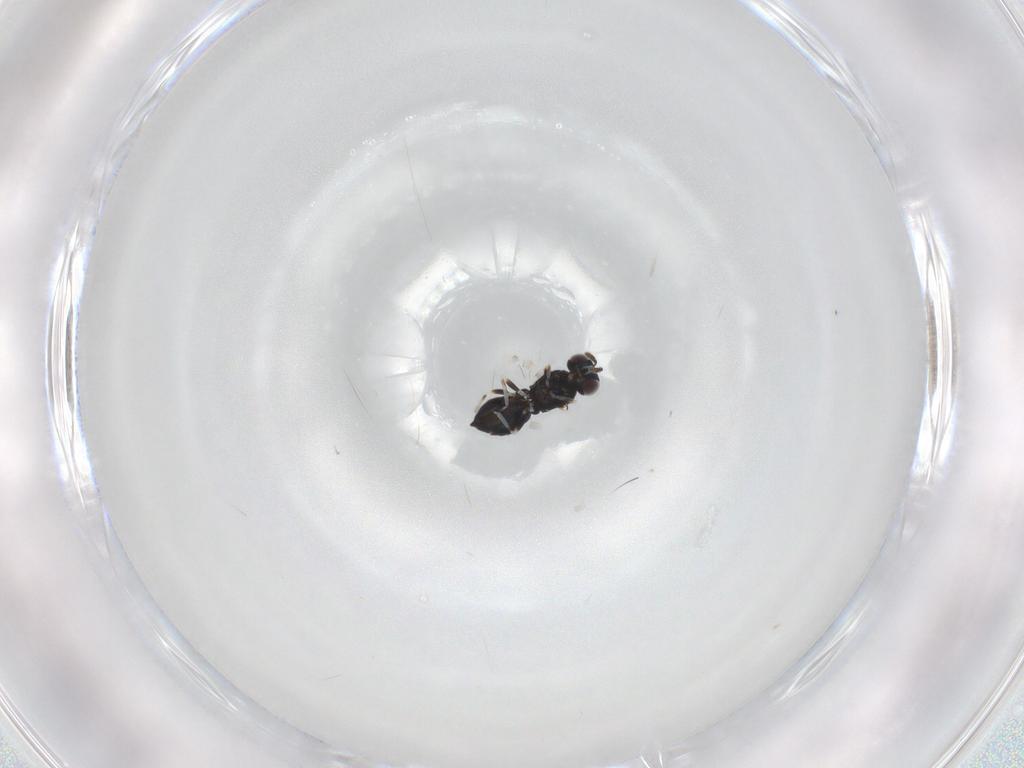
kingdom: Animalia
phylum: Arthropoda
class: Insecta
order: Hymenoptera
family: Eulophidae
